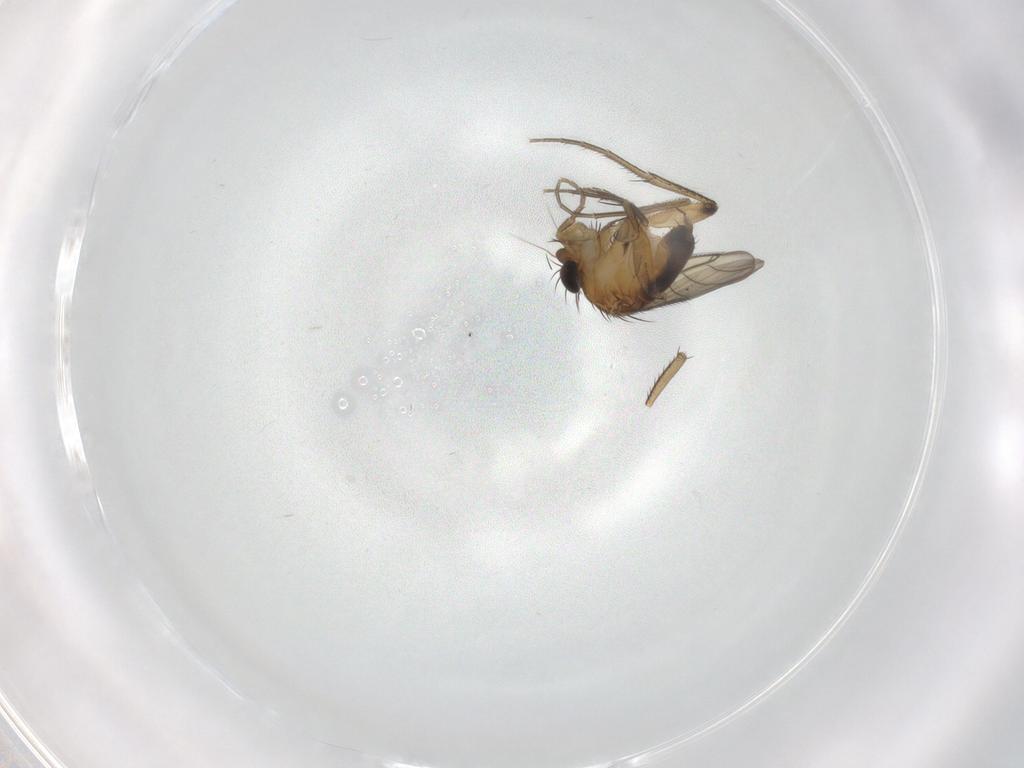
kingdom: Animalia
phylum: Arthropoda
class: Insecta
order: Diptera
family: Phoridae
